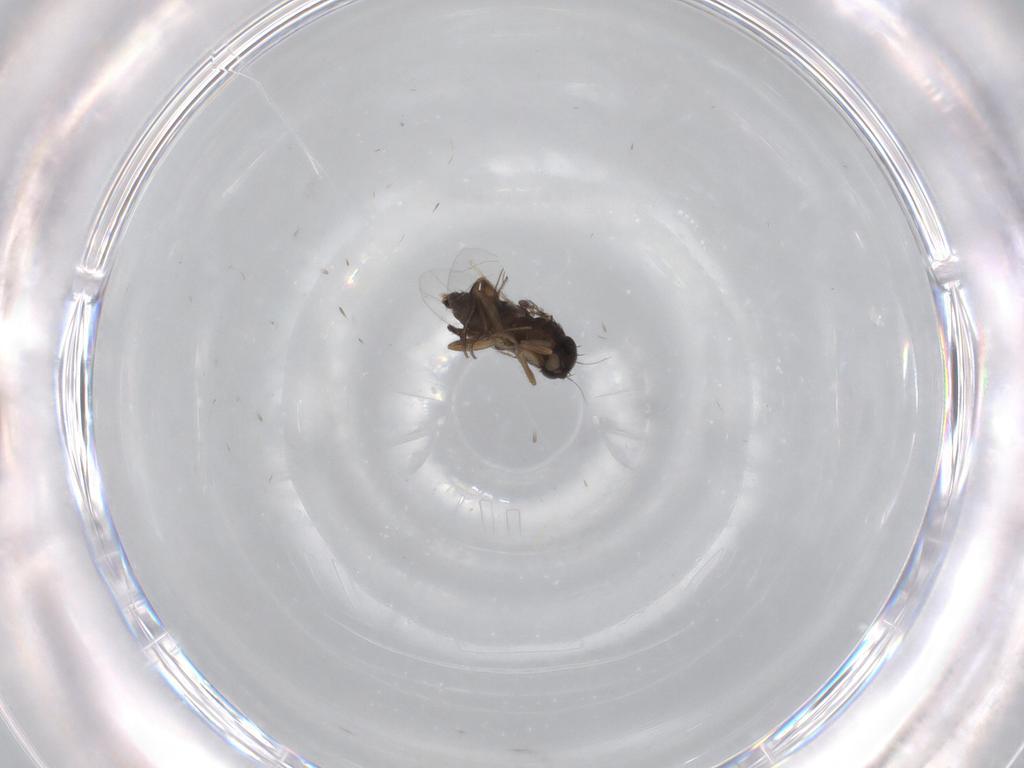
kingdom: Animalia
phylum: Arthropoda
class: Insecta
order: Diptera
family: Phoridae
